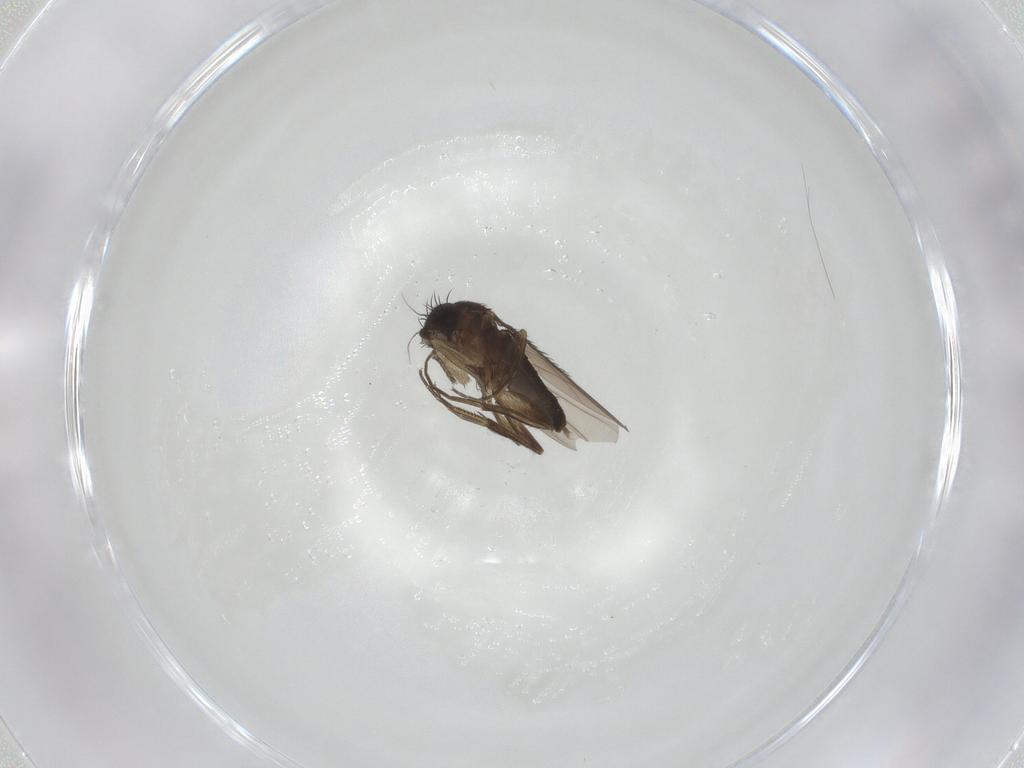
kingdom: Animalia
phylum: Arthropoda
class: Insecta
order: Diptera
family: Phoridae
